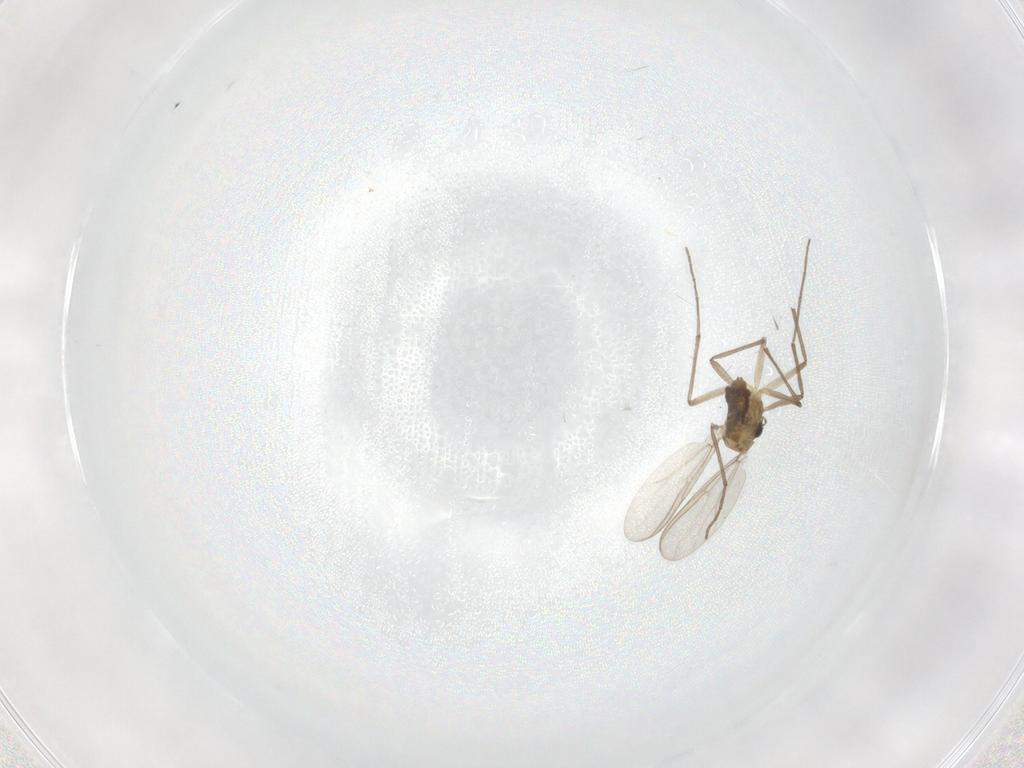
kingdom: Animalia
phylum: Arthropoda
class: Insecta
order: Diptera
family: Chironomidae
